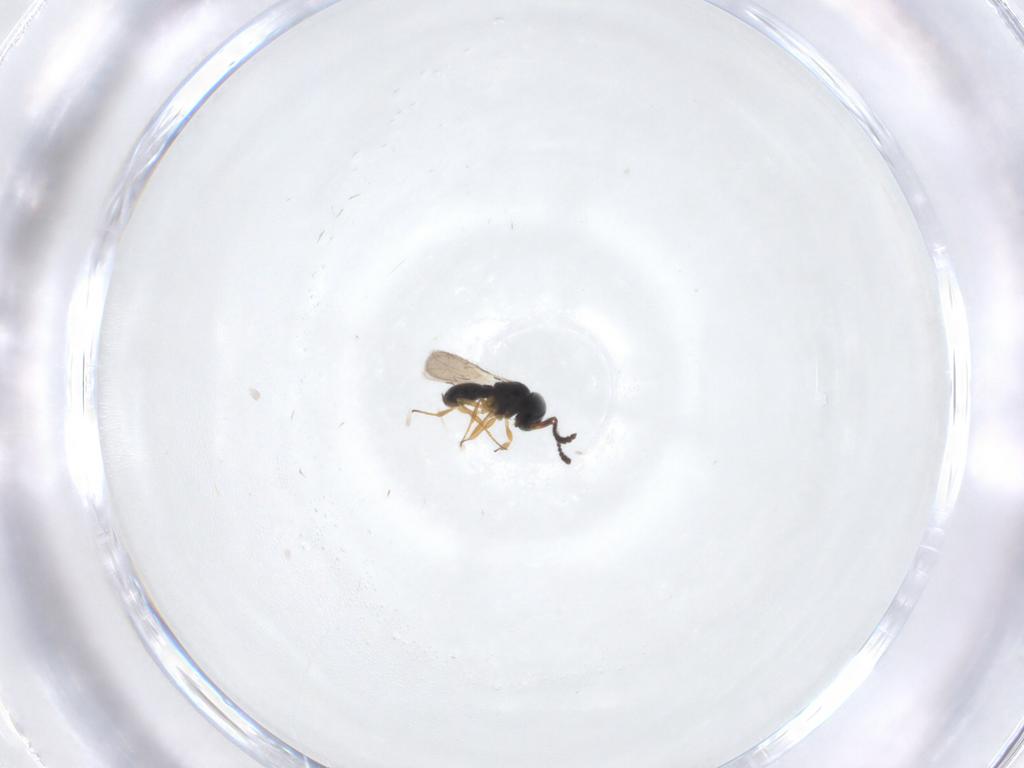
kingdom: Animalia
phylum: Arthropoda
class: Insecta
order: Hymenoptera
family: Scelionidae
